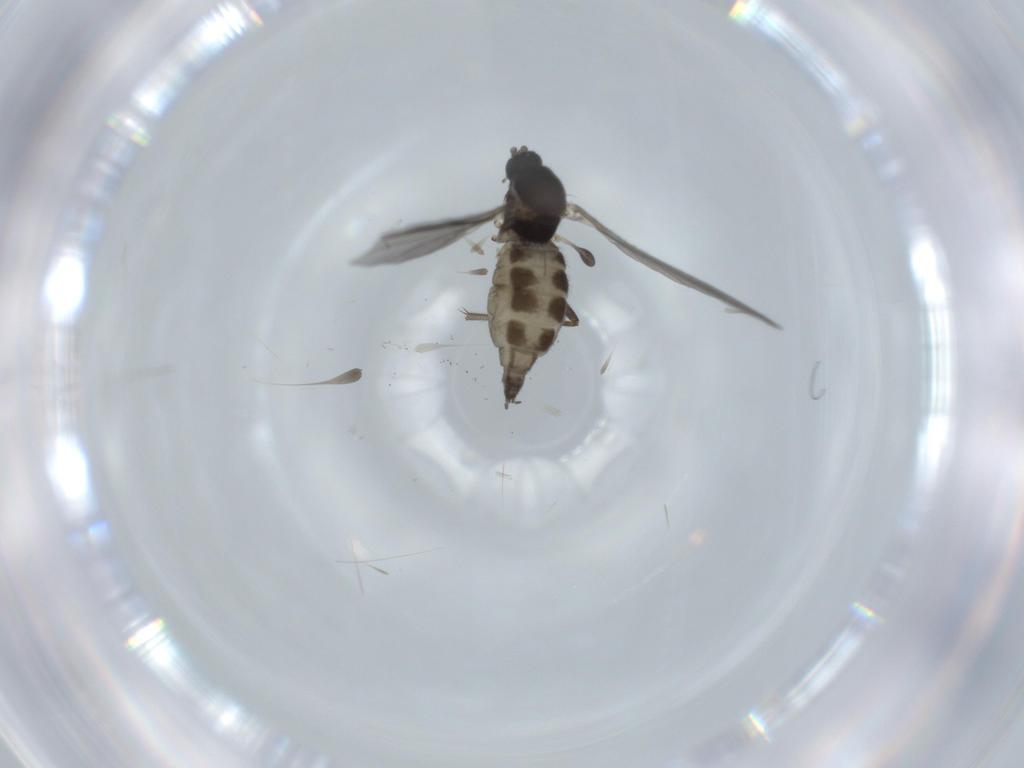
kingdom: Animalia
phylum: Arthropoda
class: Insecta
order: Diptera
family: Sciaridae
